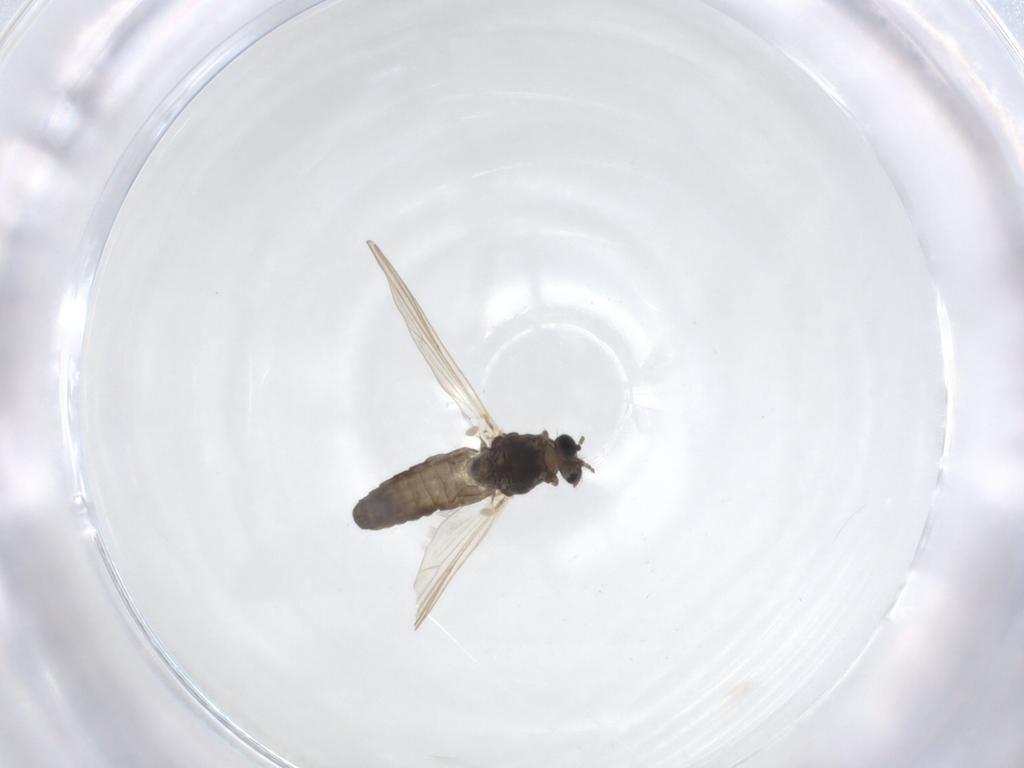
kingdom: Animalia
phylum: Arthropoda
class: Insecta
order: Diptera
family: Chironomidae
